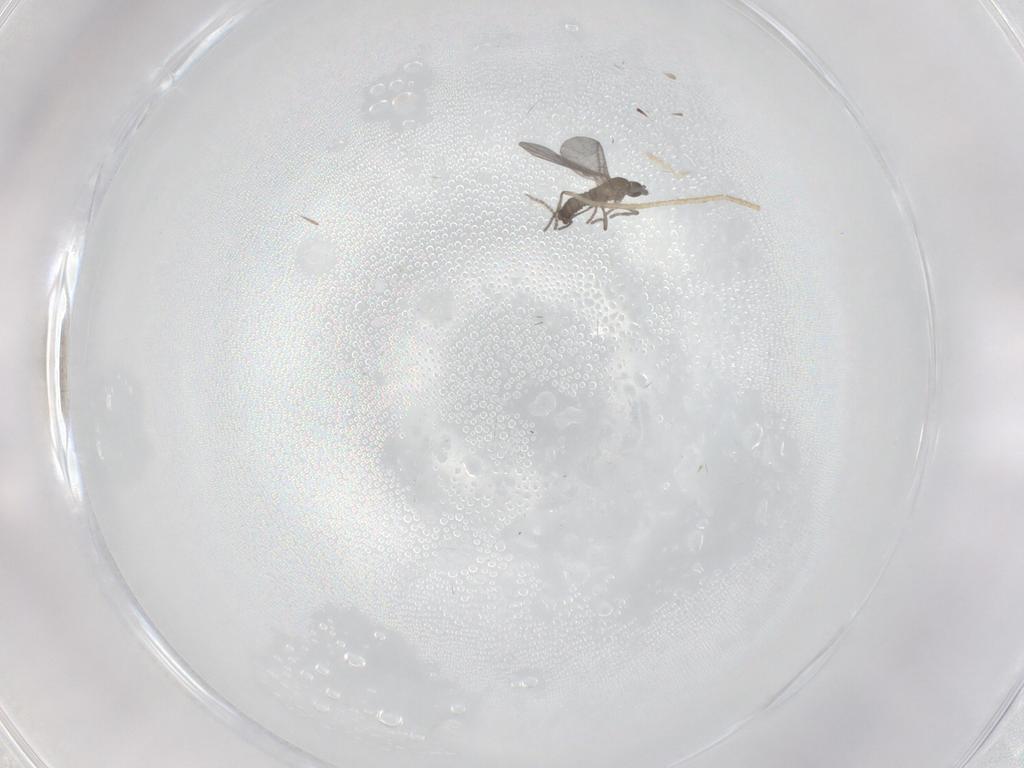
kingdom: Animalia
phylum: Arthropoda
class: Insecta
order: Diptera
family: Sciaridae
